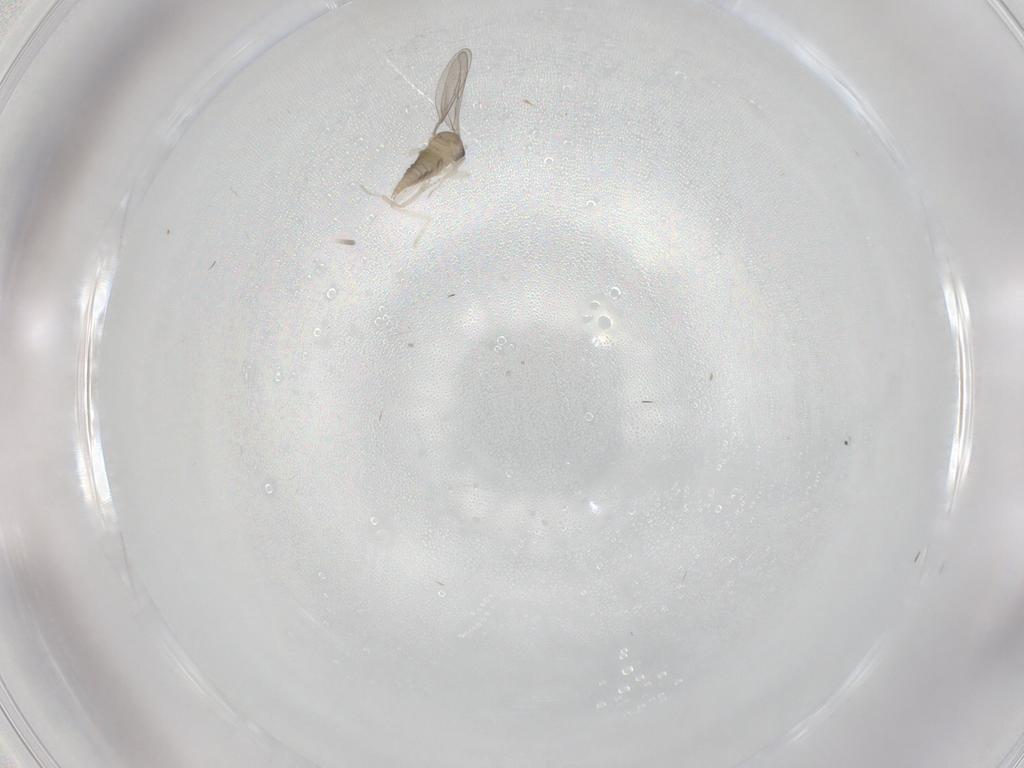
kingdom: Animalia
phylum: Arthropoda
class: Insecta
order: Diptera
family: Cecidomyiidae
